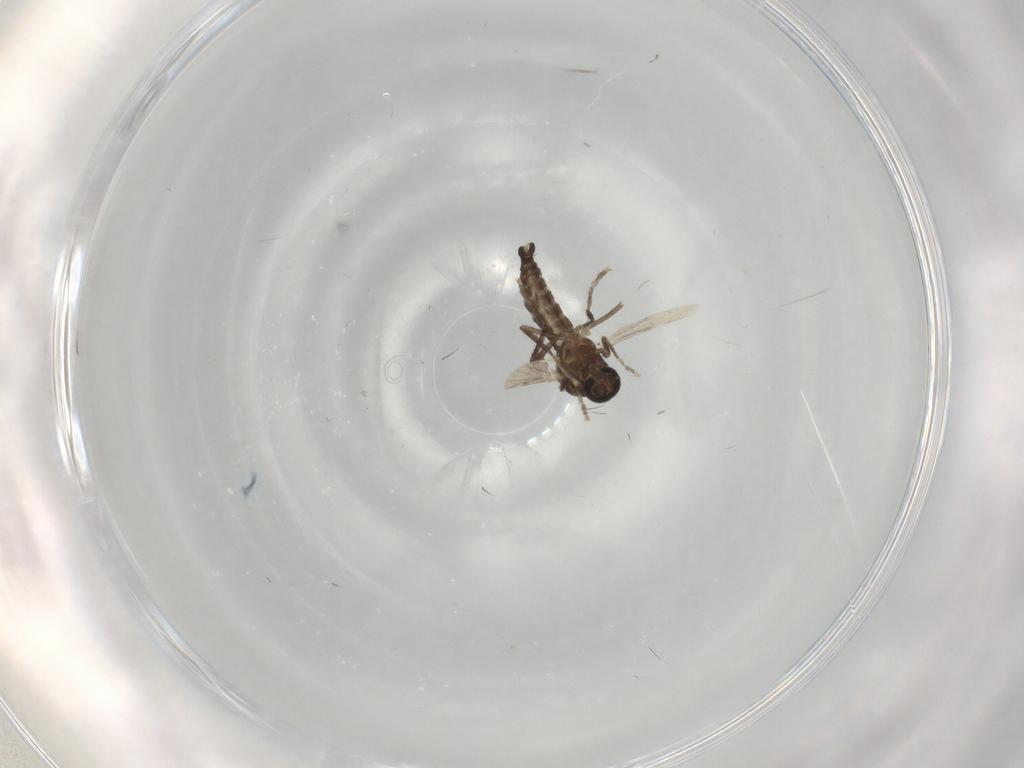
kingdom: Animalia
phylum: Arthropoda
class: Insecta
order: Diptera
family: Ceratopogonidae
